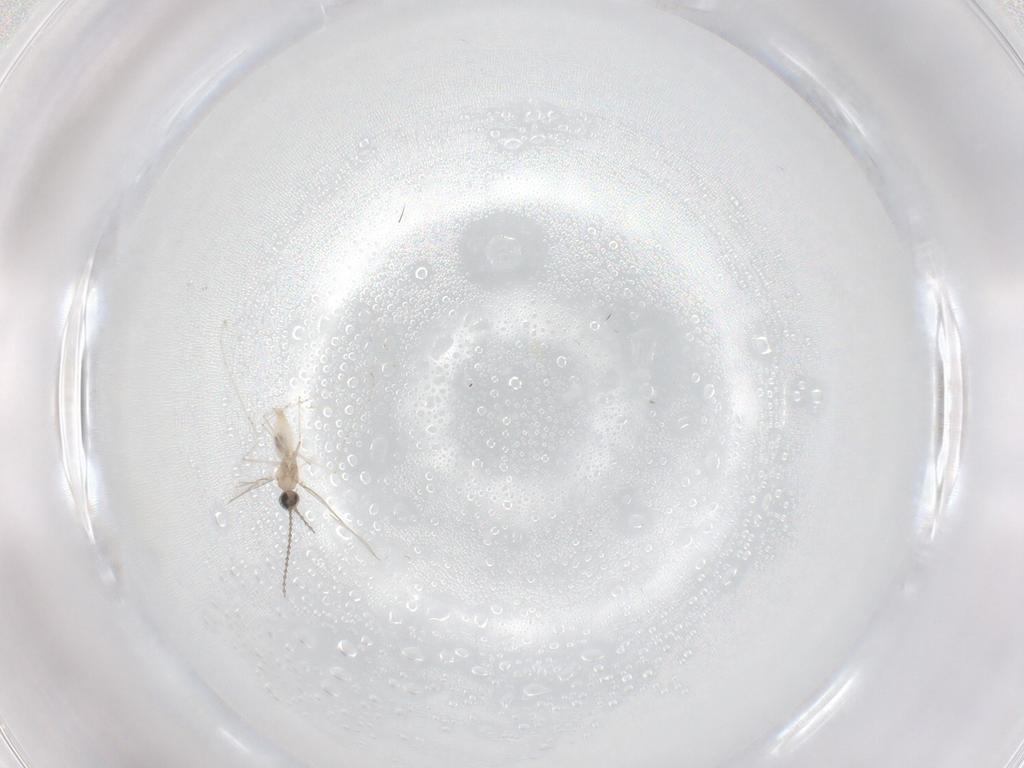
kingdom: Animalia
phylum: Arthropoda
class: Insecta
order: Diptera
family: Cecidomyiidae
